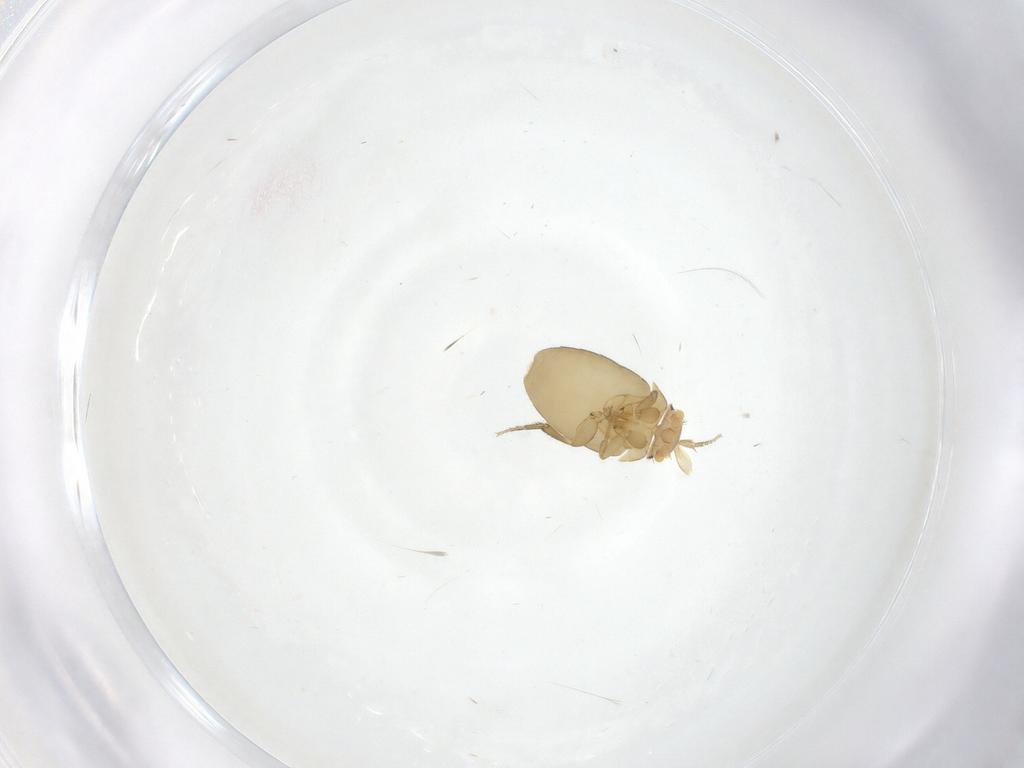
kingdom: Animalia
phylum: Arthropoda
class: Insecta
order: Diptera
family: Phoridae
